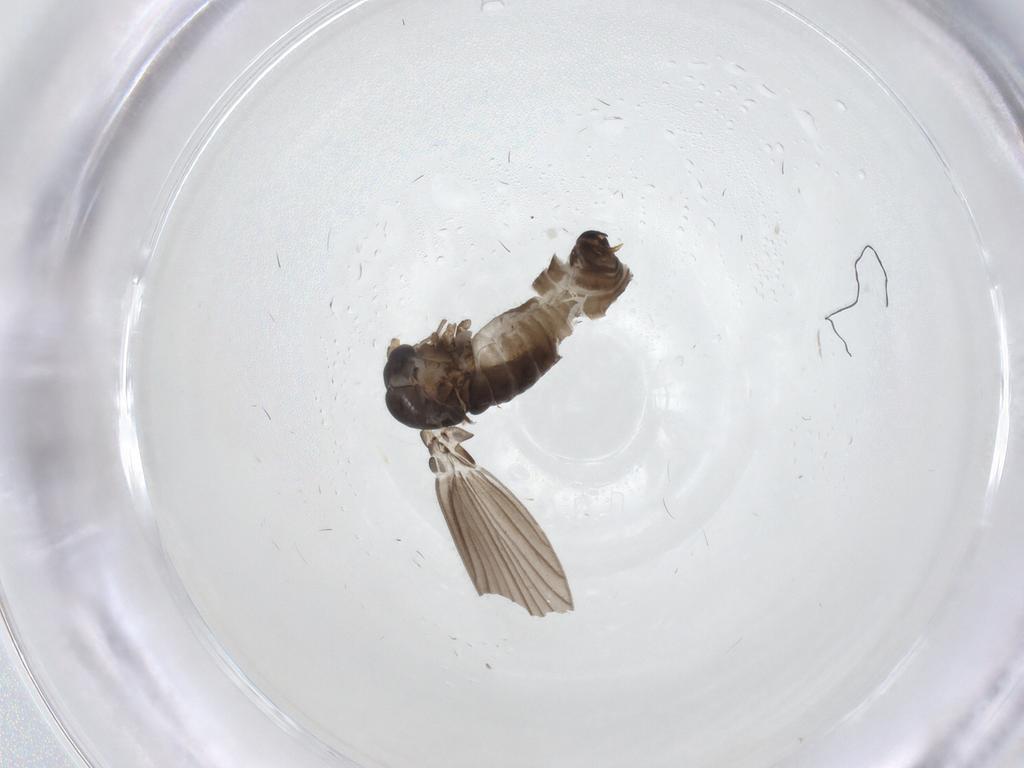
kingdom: Animalia
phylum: Arthropoda
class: Insecta
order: Diptera
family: Psychodidae
